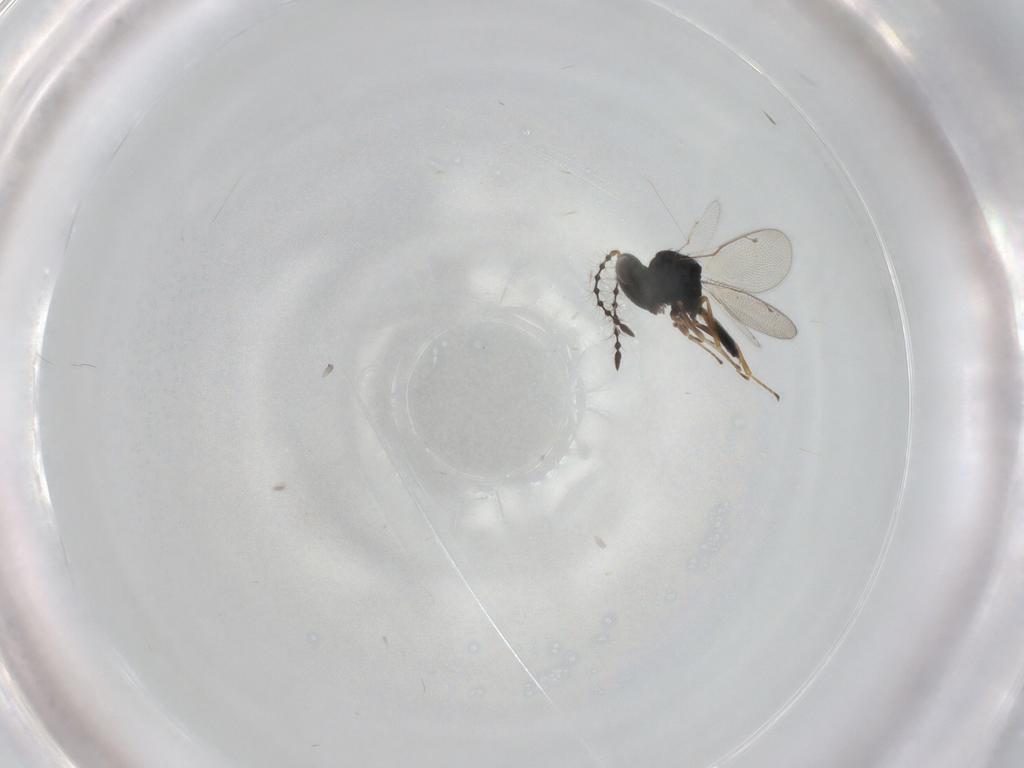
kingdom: Animalia
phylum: Arthropoda
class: Insecta
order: Hymenoptera
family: Pteromalidae
